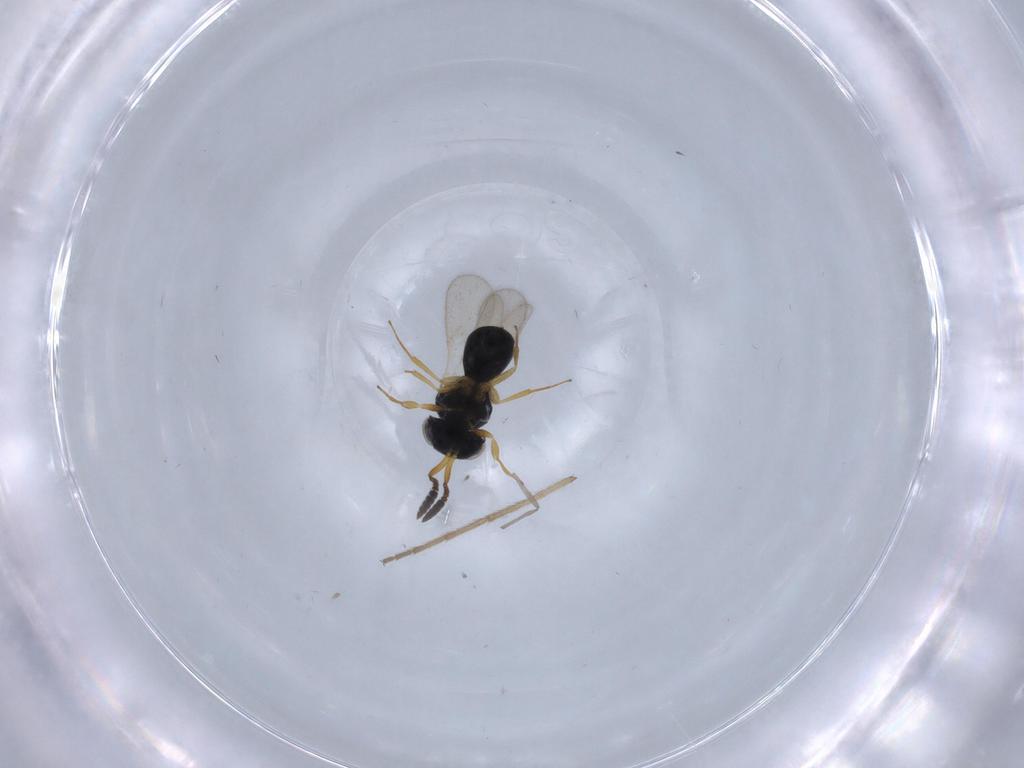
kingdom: Animalia
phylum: Arthropoda
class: Insecta
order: Hymenoptera
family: Scelionidae
